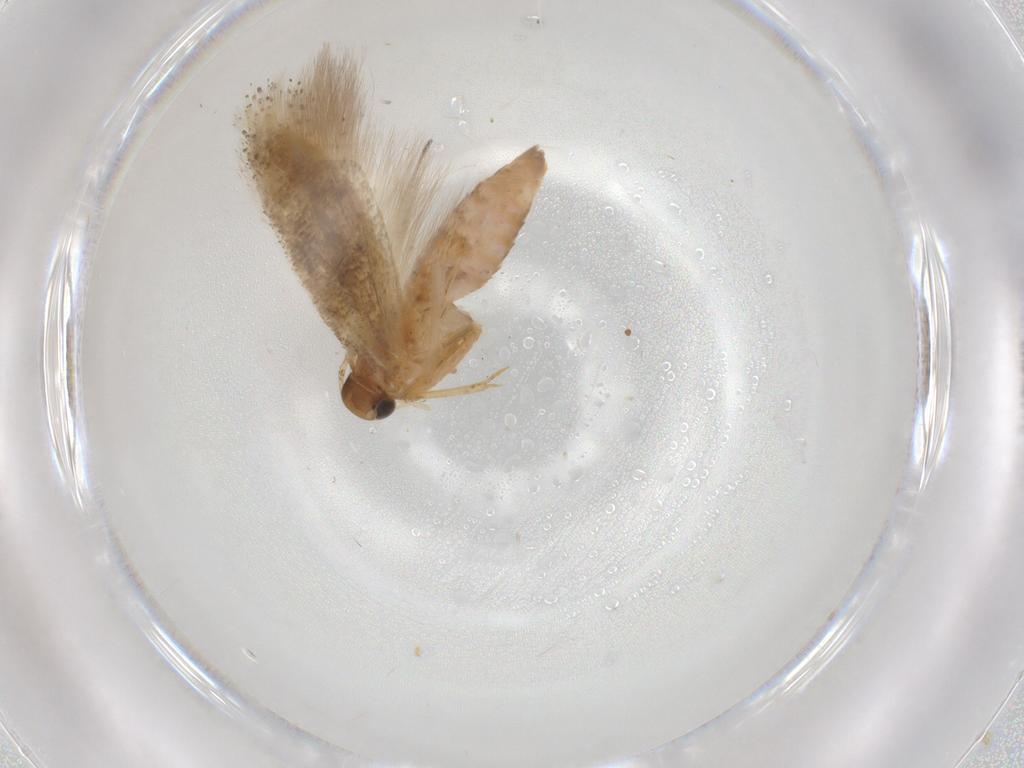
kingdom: Animalia
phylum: Arthropoda
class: Insecta
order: Lepidoptera
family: Gelechiidae
